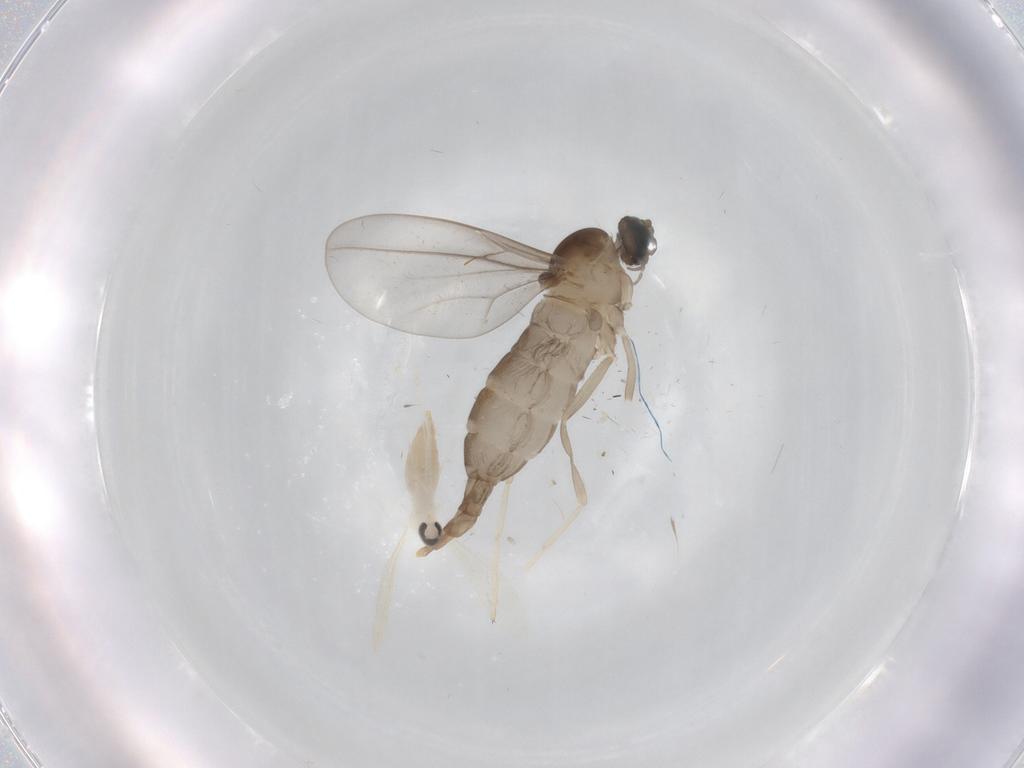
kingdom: Animalia
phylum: Arthropoda
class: Insecta
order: Diptera
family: Cecidomyiidae
